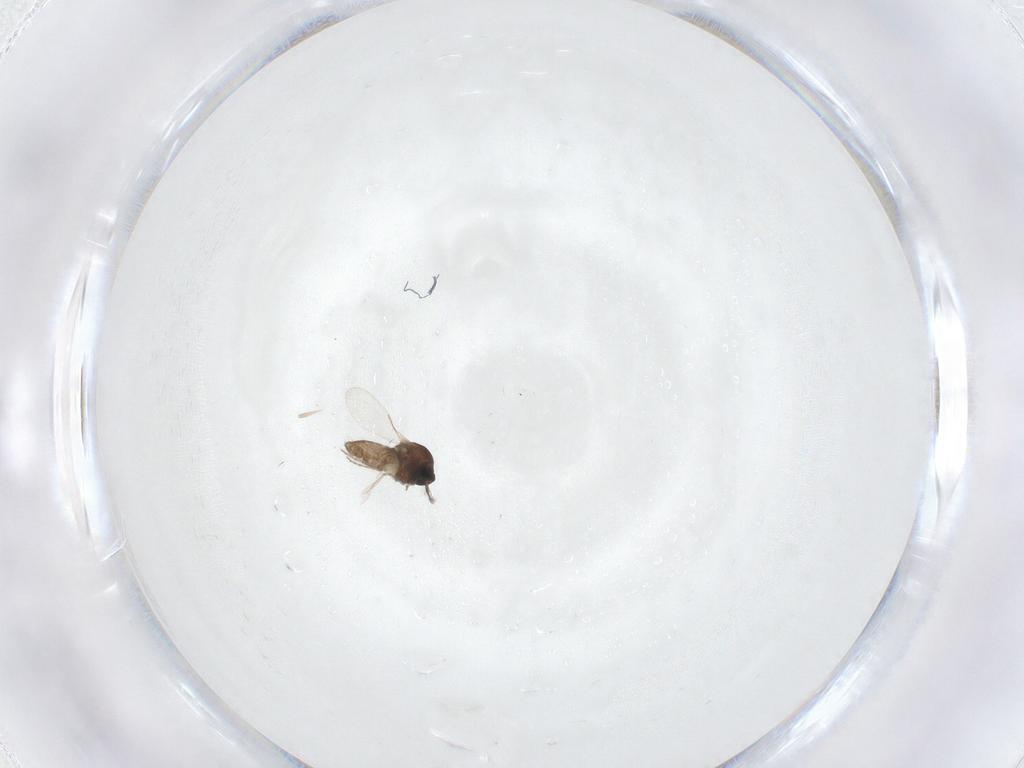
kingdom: Animalia
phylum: Arthropoda
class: Insecta
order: Diptera
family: Ceratopogonidae
